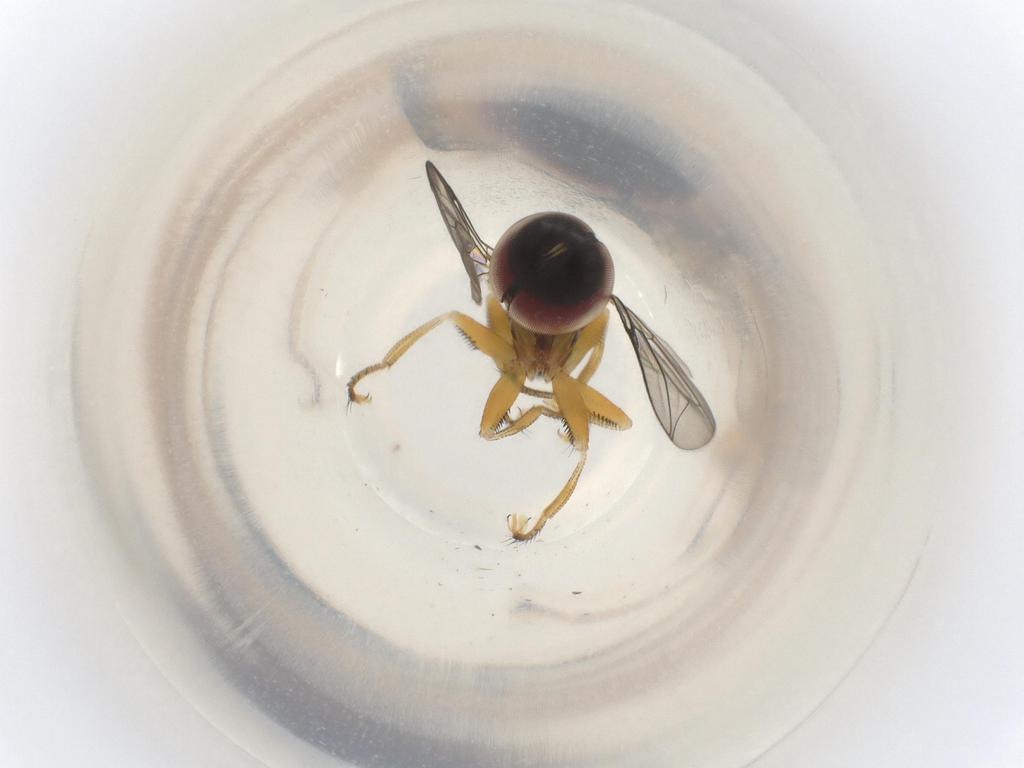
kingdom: Animalia
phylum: Arthropoda
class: Insecta
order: Diptera
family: Pipunculidae
